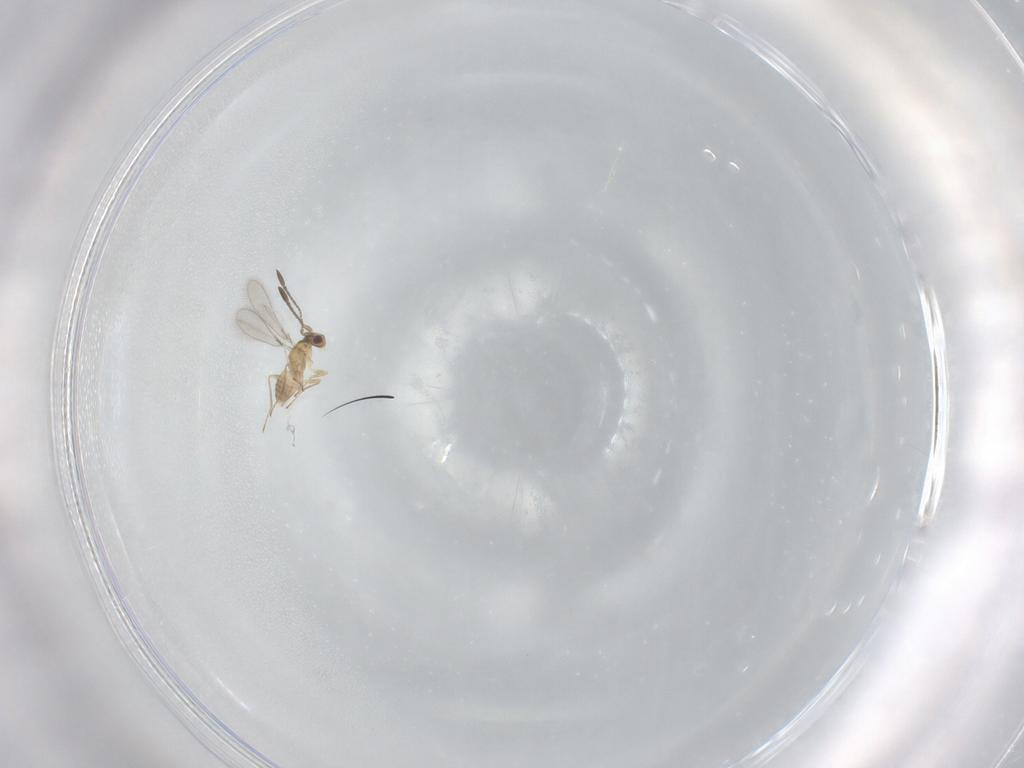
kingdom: Animalia
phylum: Arthropoda
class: Insecta
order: Hymenoptera
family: Mymaridae
